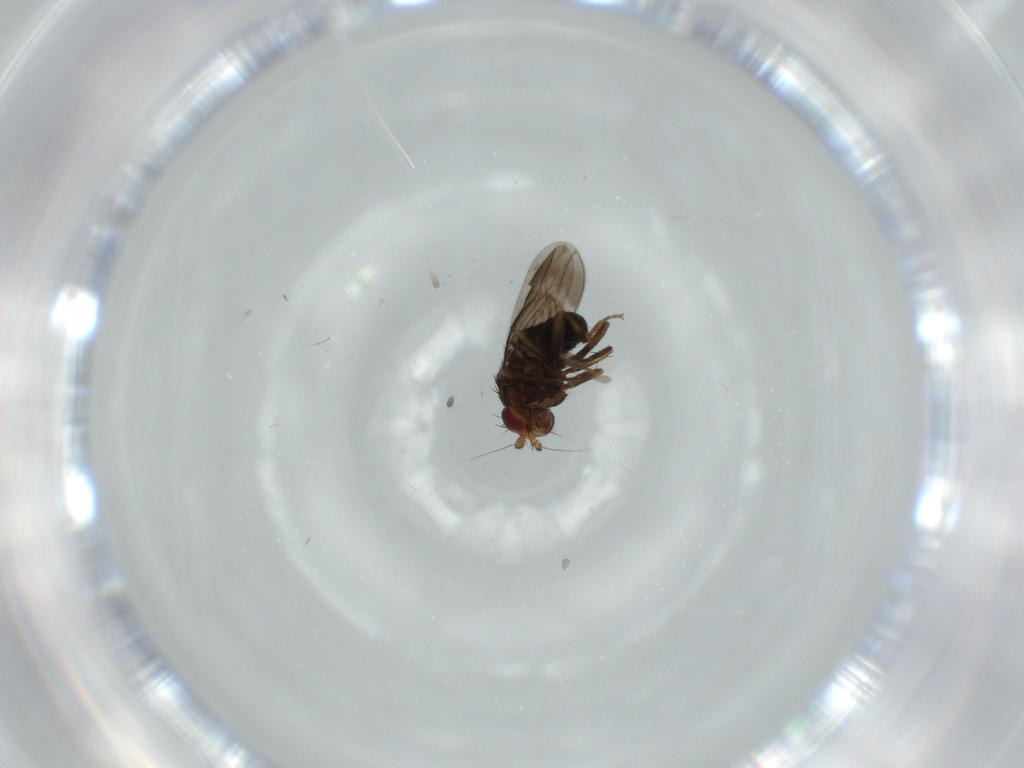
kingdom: Animalia
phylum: Arthropoda
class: Insecta
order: Diptera
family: Sphaeroceridae
